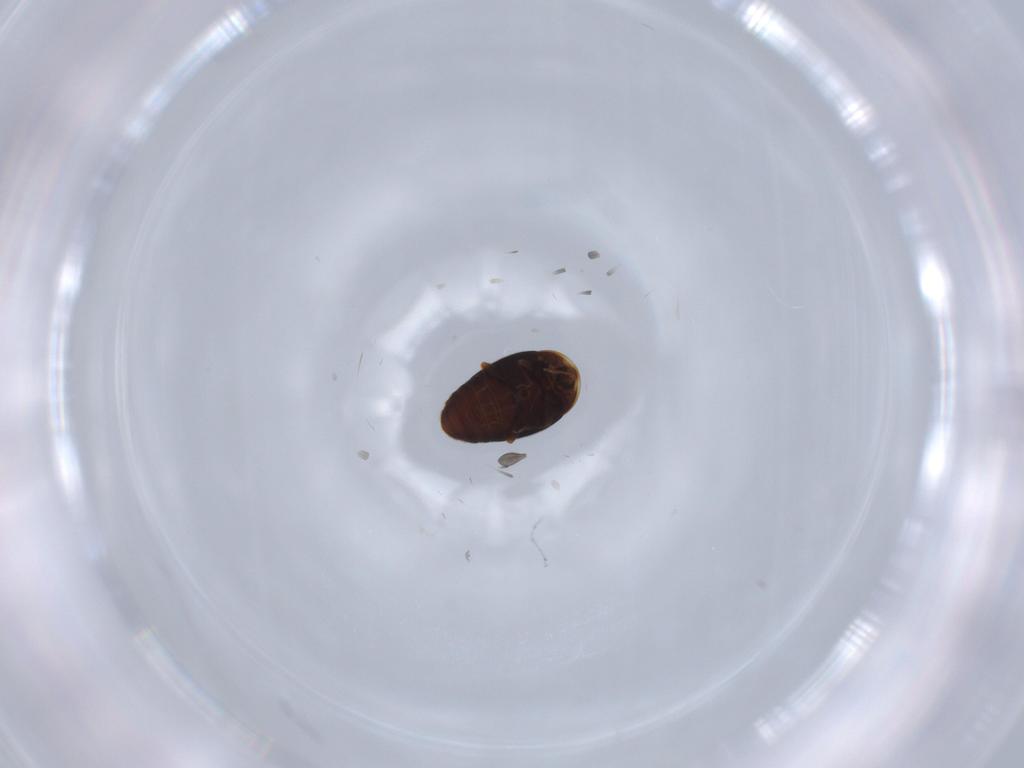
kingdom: Animalia
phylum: Arthropoda
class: Insecta
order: Coleoptera
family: Corylophidae
